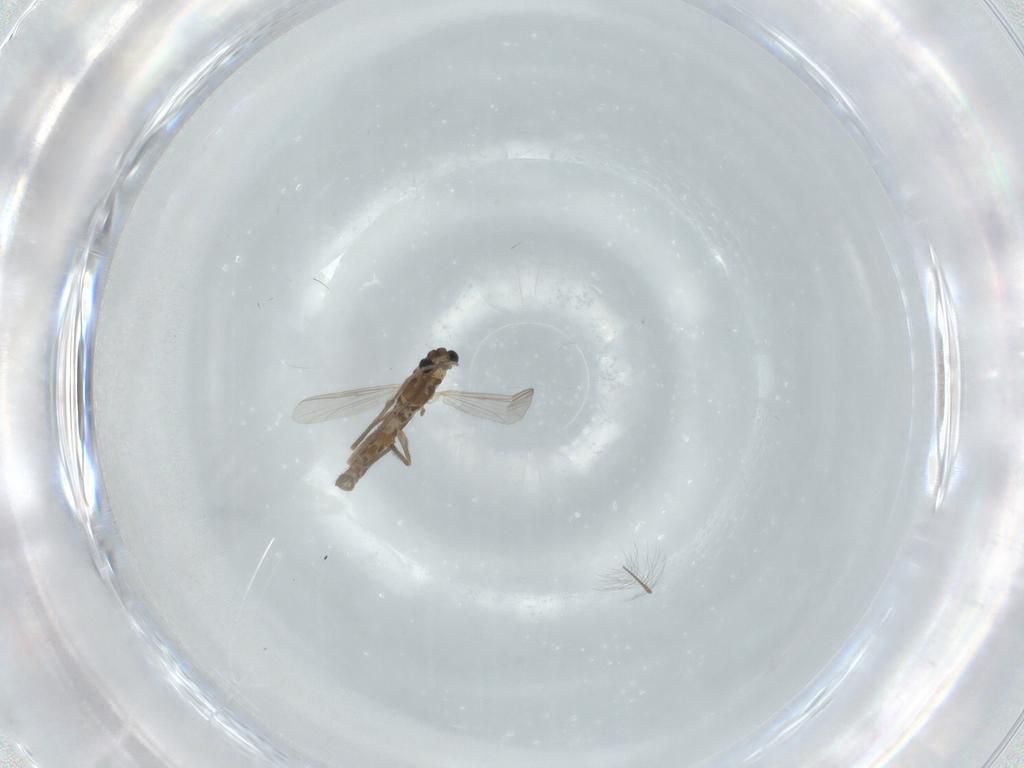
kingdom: Animalia
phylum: Arthropoda
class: Insecta
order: Diptera
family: Chironomidae
